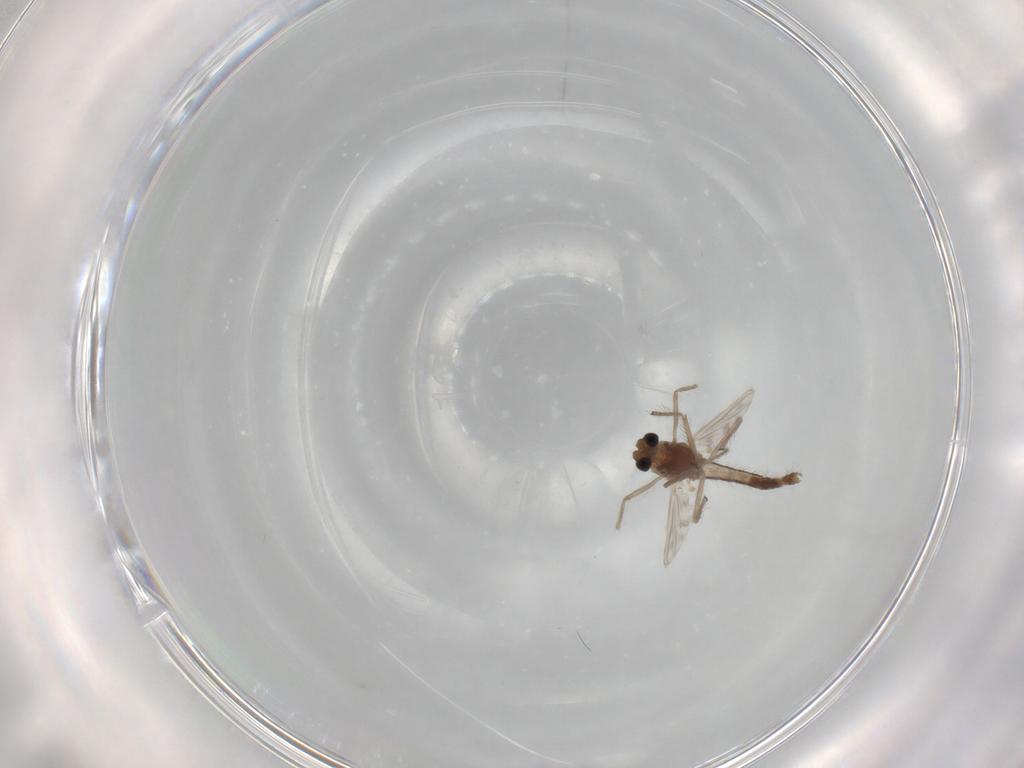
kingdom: Animalia
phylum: Arthropoda
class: Insecta
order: Diptera
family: Chironomidae
